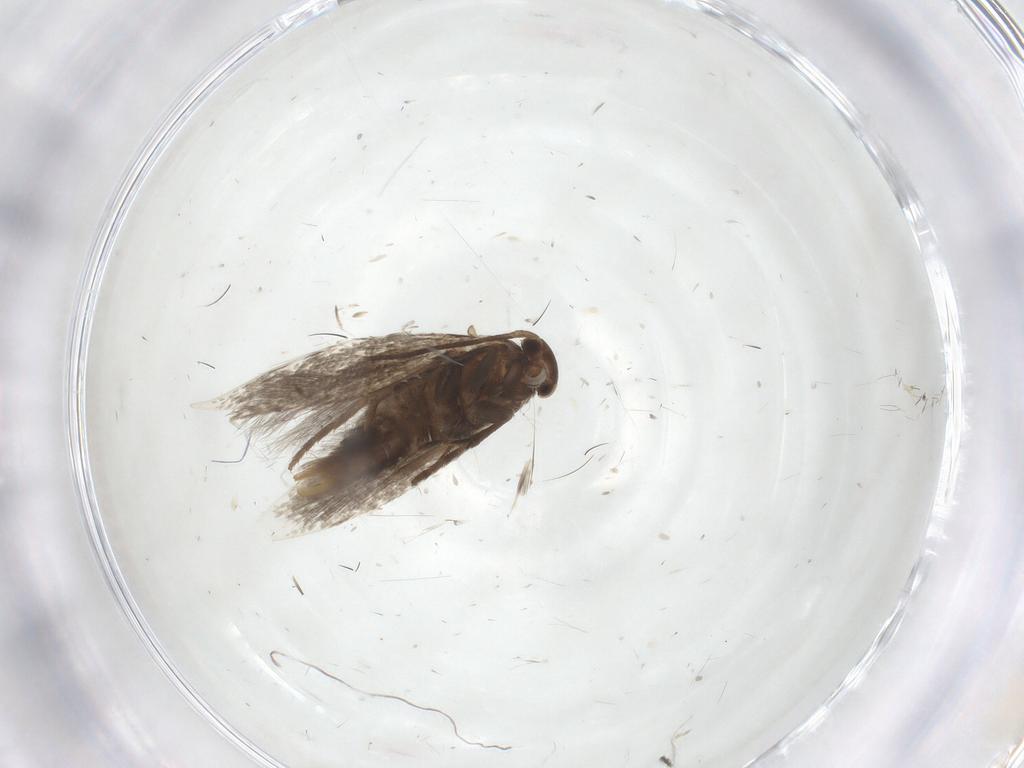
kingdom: Animalia
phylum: Arthropoda
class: Insecta
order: Lepidoptera
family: Elachistidae
